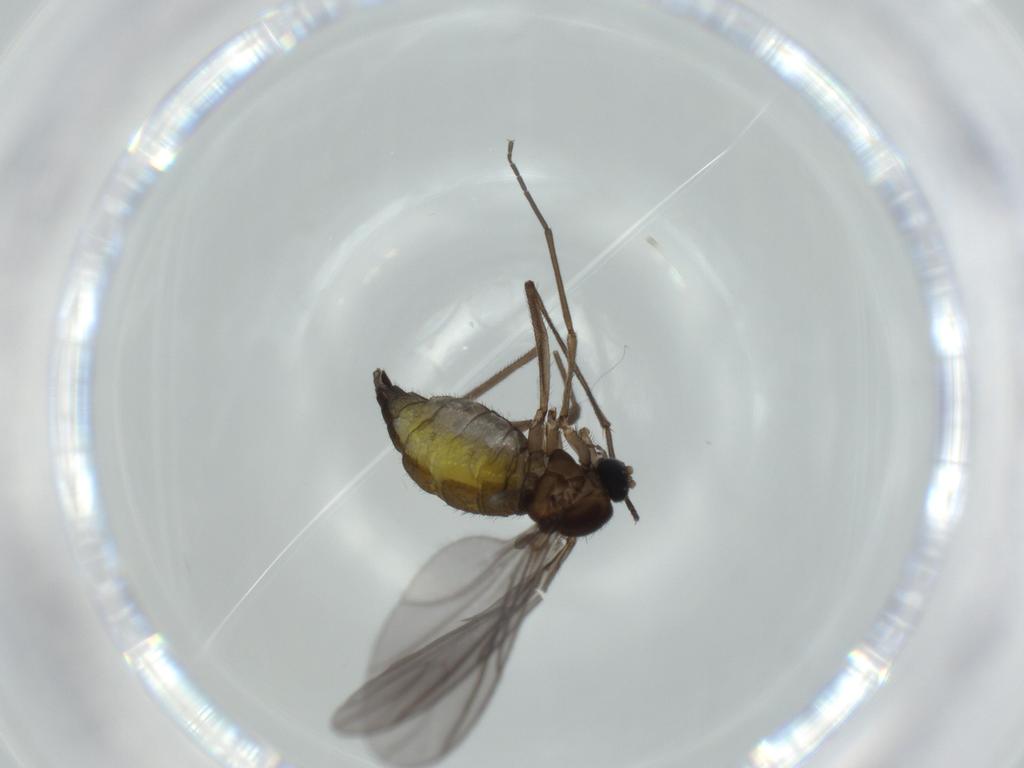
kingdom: Animalia
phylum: Arthropoda
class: Insecta
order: Diptera
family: Sciaridae
